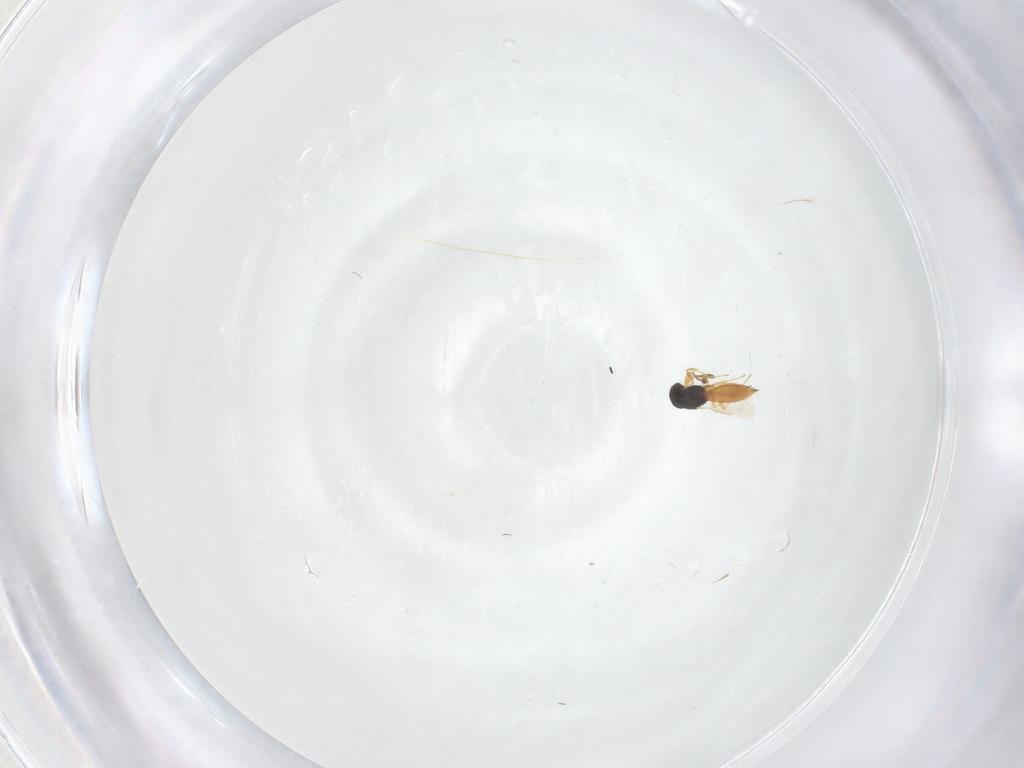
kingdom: Animalia
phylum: Arthropoda
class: Insecta
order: Hymenoptera
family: Scelionidae
